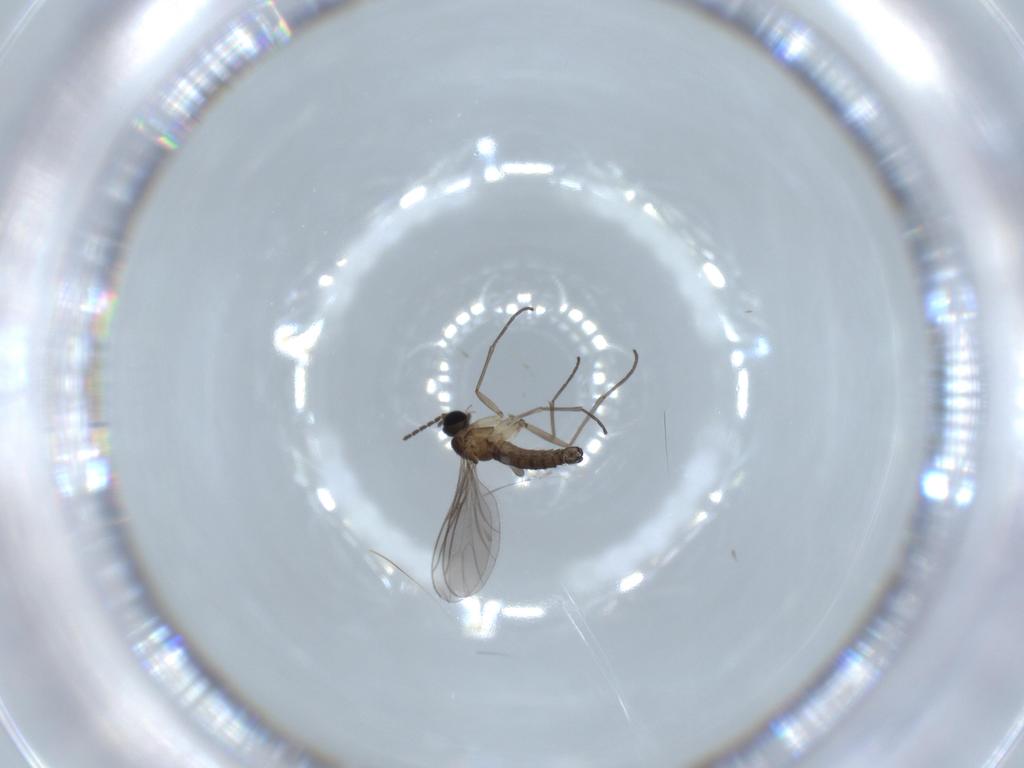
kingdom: Animalia
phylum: Arthropoda
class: Insecta
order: Diptera
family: Sciaridae
